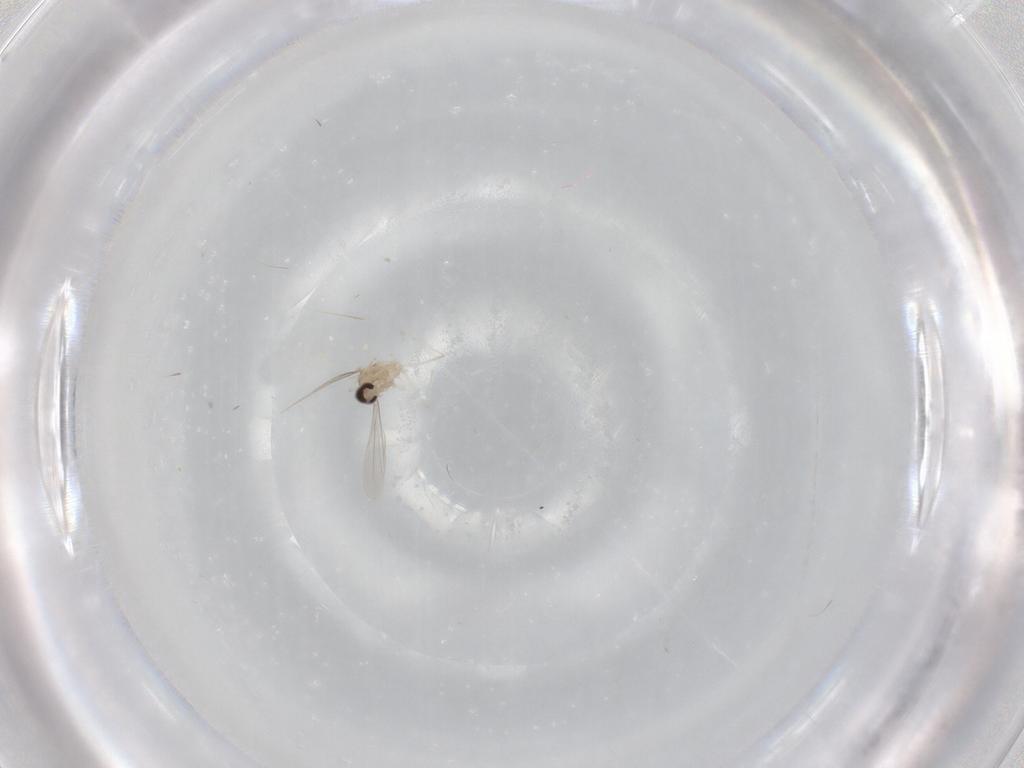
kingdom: Animalia
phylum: Arthropoda
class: Insecta
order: Diptera
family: Cecidomyiidae
